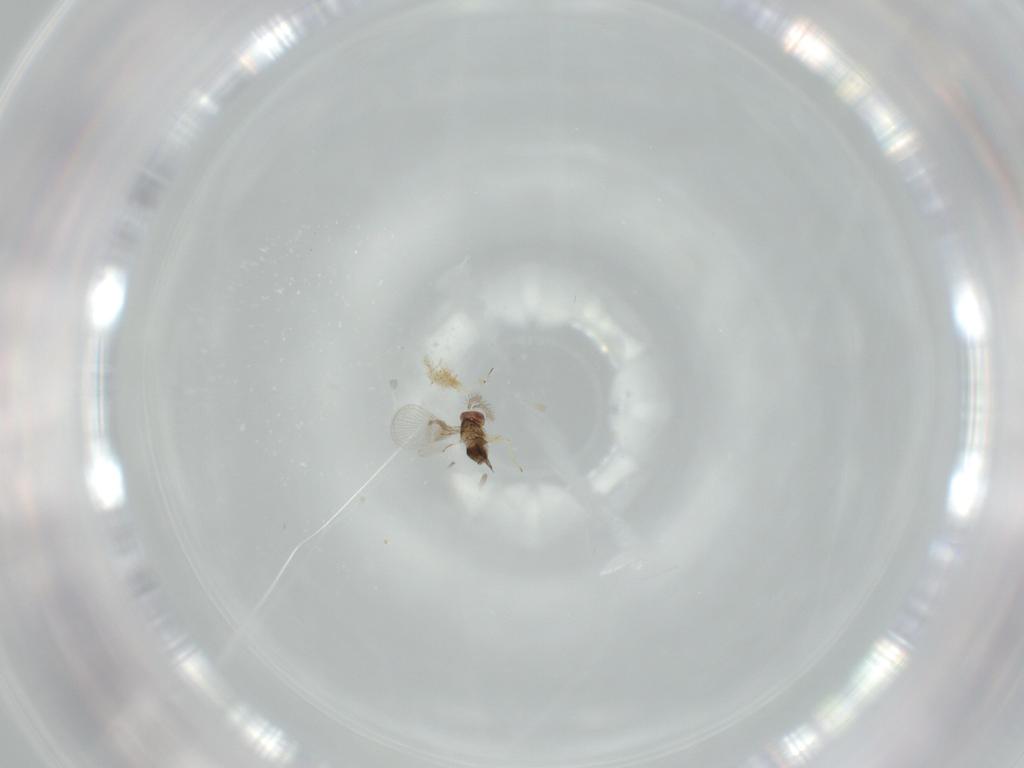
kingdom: Animalia
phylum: Arthropoda
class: Insecta
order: Hymenoptera
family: Trichogrammatidae
